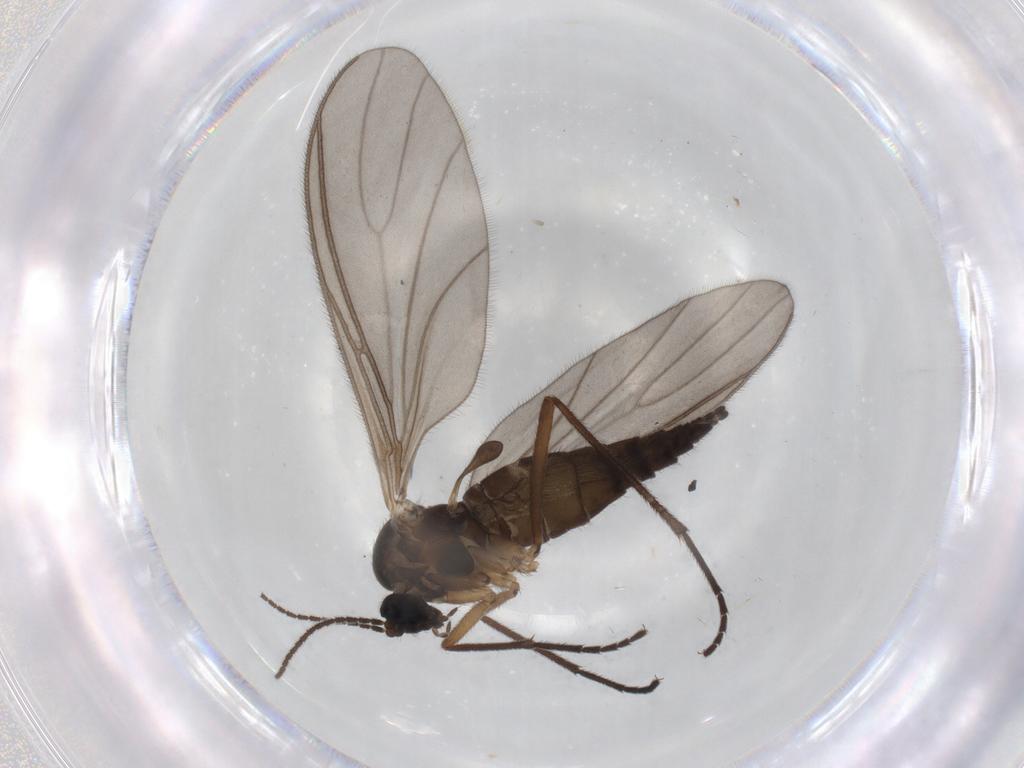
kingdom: Animalia
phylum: Arthropoda
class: Insecta
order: Diptera
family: Sciaridae
